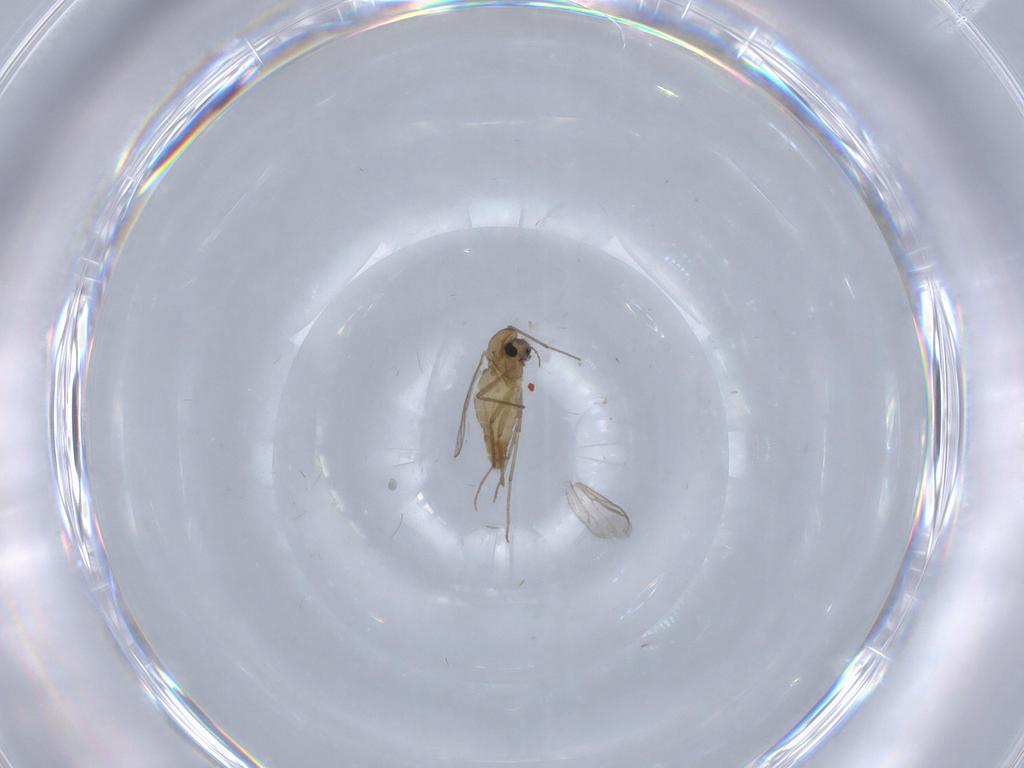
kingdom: Animalia
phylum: Arthropoda
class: Insecta
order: Diptera
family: Chironomidae
